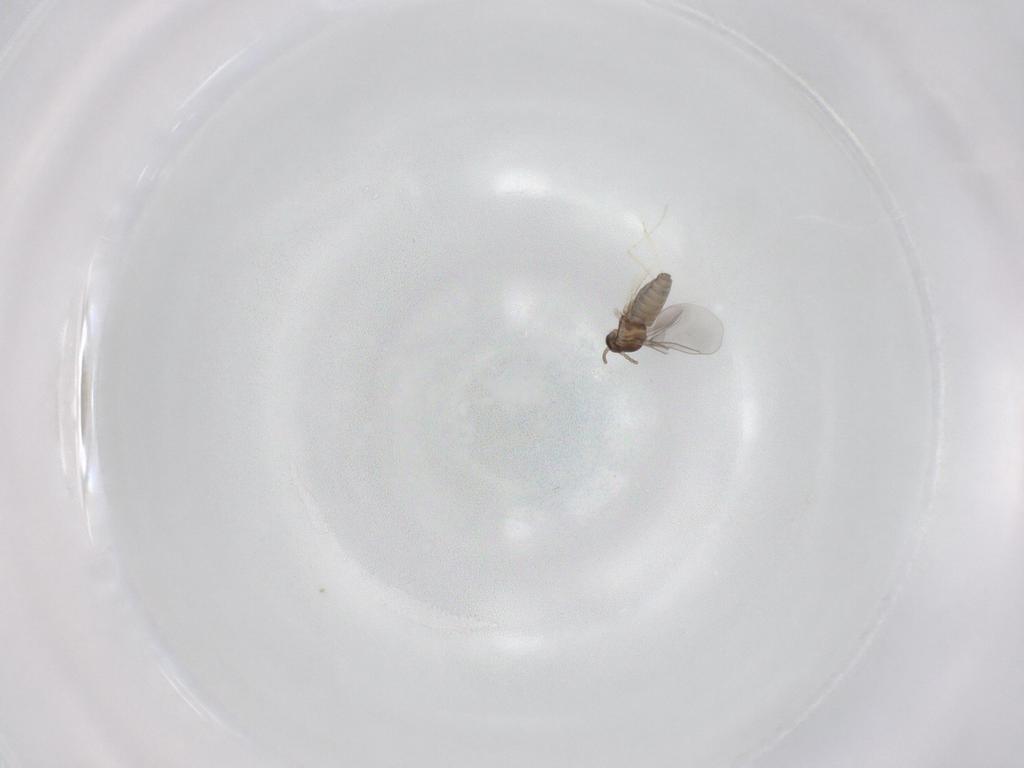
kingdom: Animalia
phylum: Arthropoda
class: Insecta
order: Diptera
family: Cecidomyiidae
